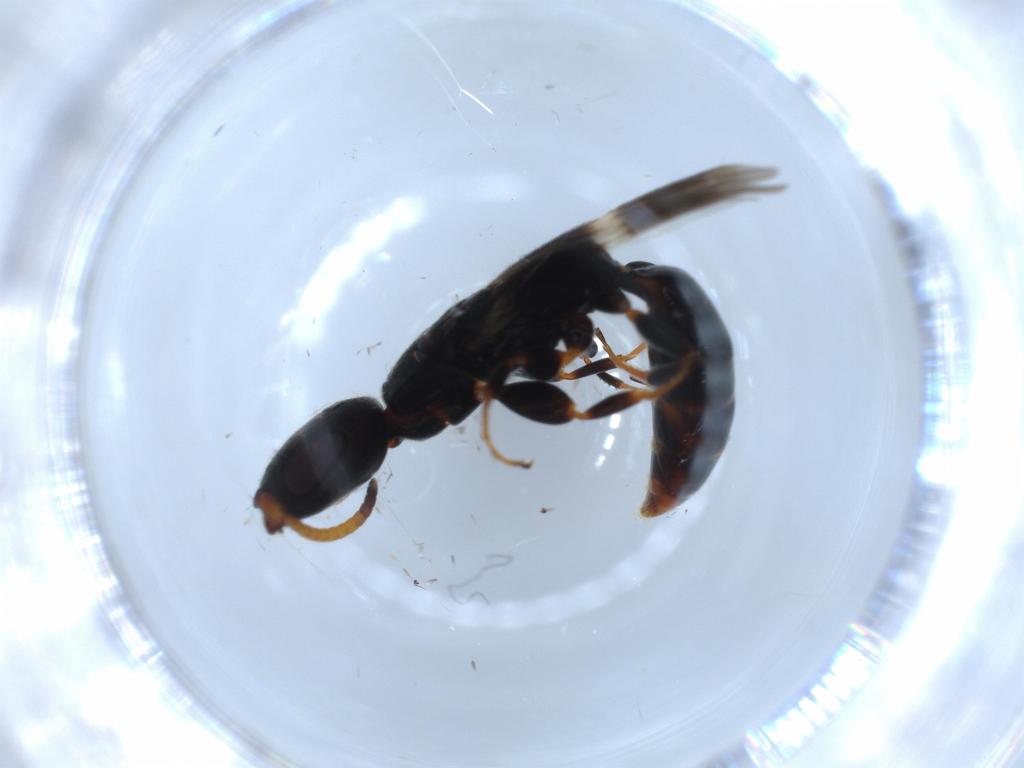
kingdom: Animalia
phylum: Arthropoda
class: Insecta
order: Hymenoptera
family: Bethylidae
